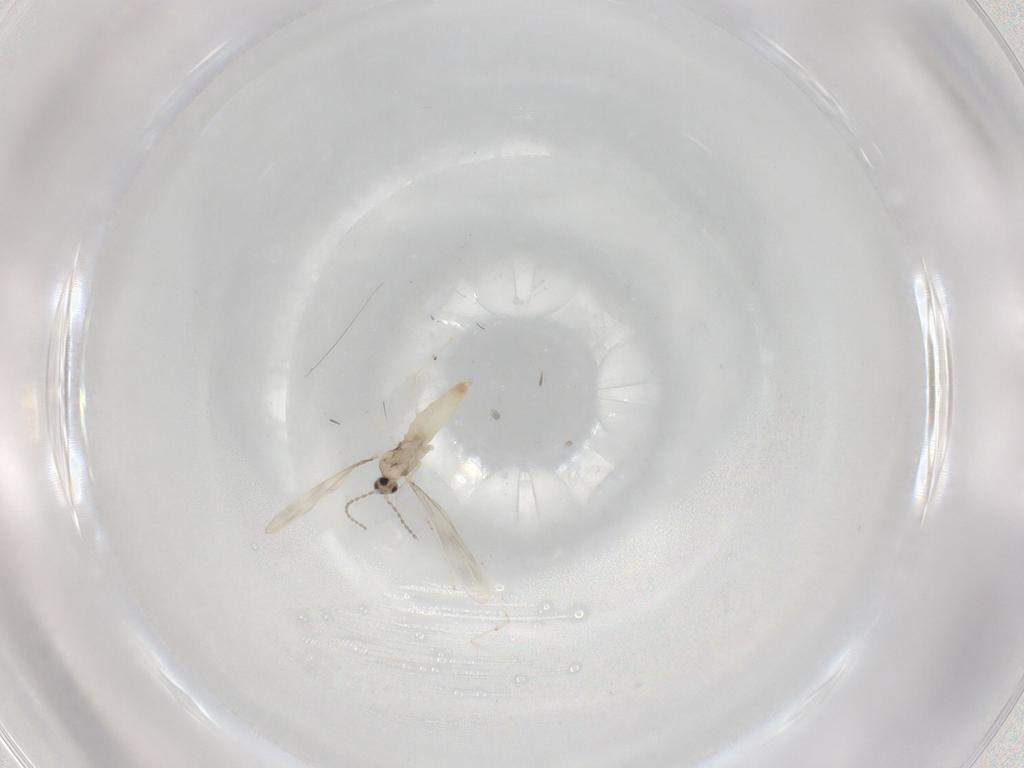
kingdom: Animalia
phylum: Arthropoda
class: Insecta
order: Diptera
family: Cecidomyiidae
